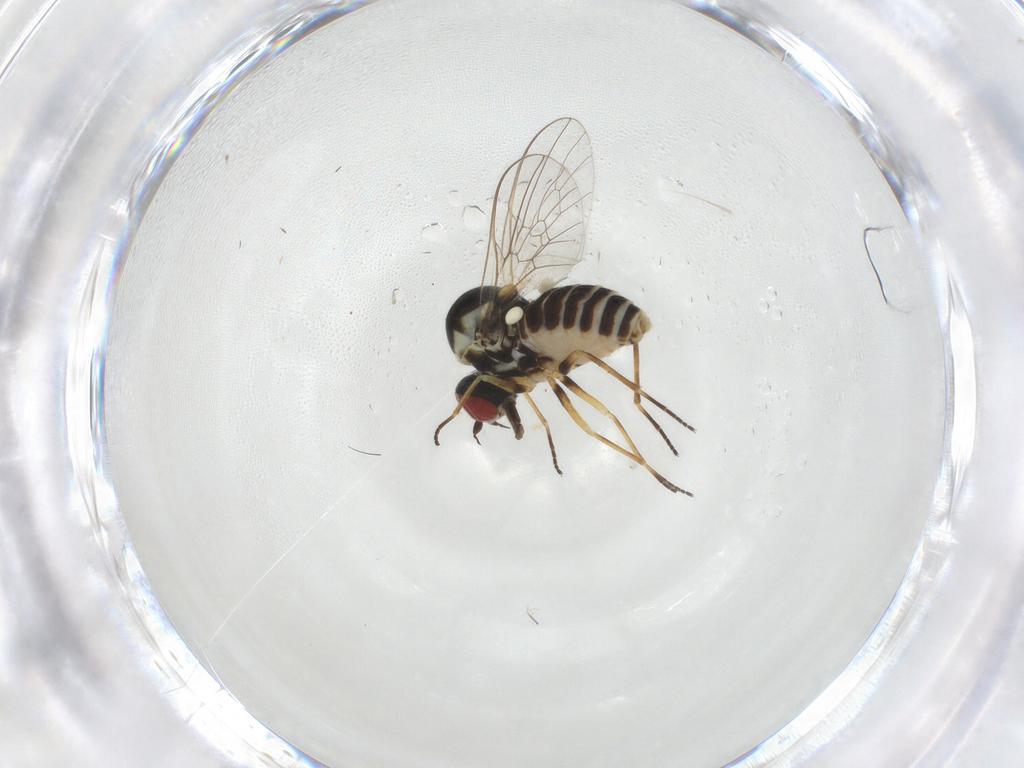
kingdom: Animalia
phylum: Arthropoda
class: Insecta
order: Diptera
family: Bombyliidae
